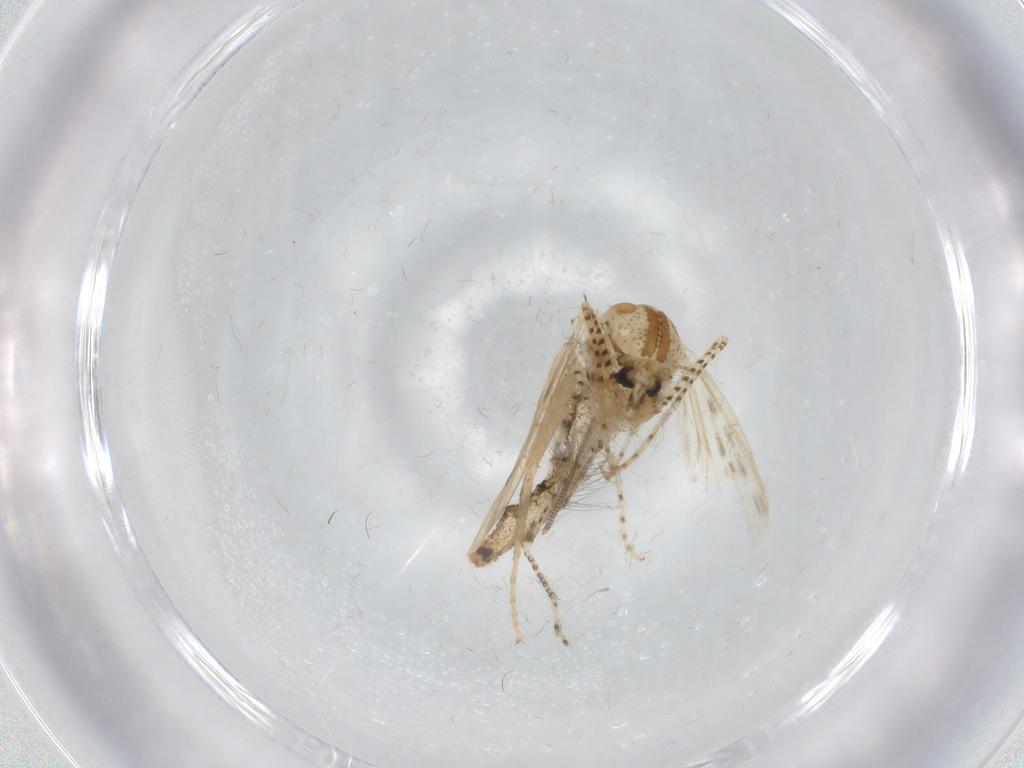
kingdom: Animalia
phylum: Arthropoda
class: Insecta
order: Diptera
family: Chaoboridae
